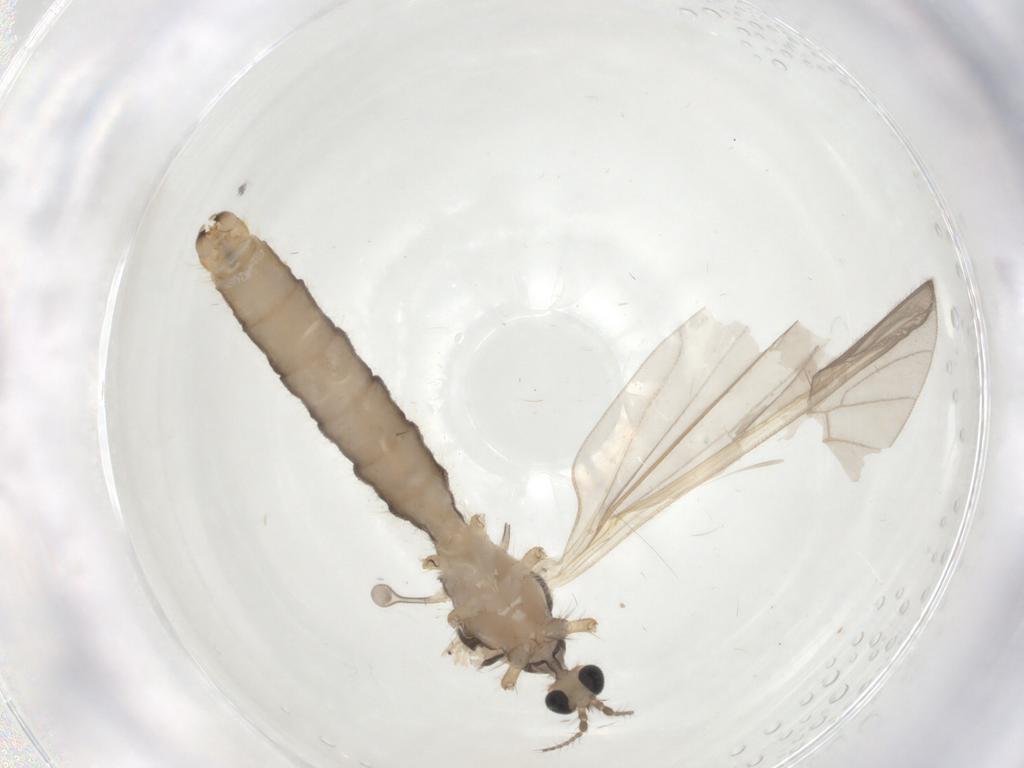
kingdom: Animalia
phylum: Arthropoda
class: Insecta
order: Diptera
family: Limoniidae
